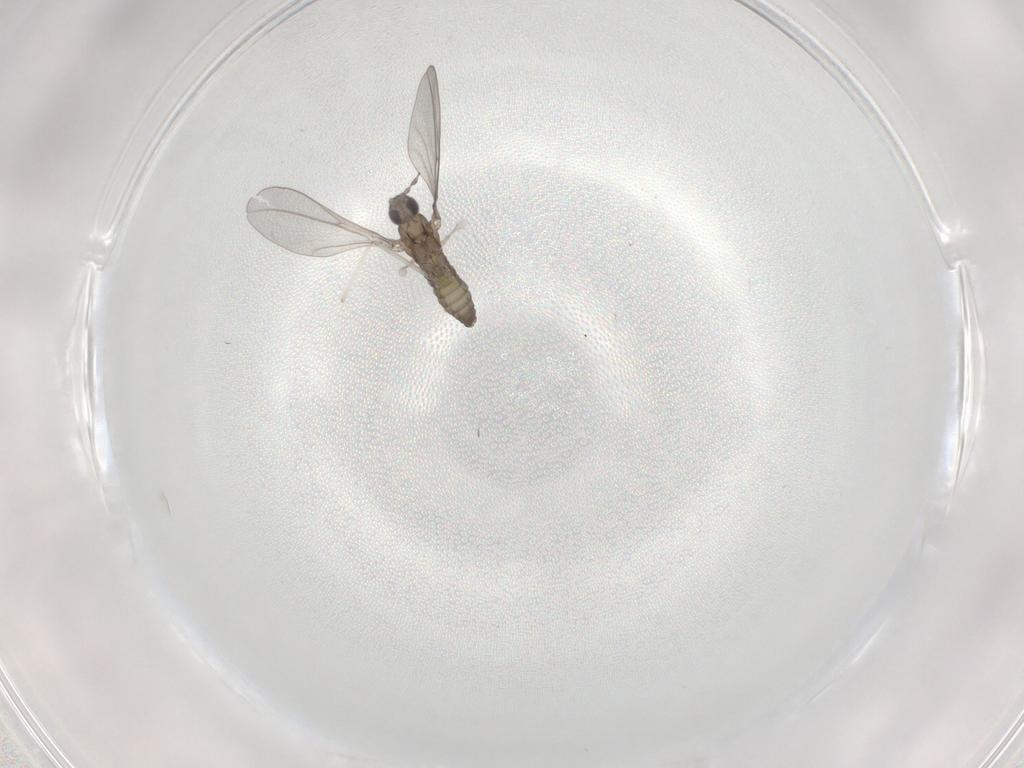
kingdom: Animalia
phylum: Arthropoda
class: Insecta
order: Diptera
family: Cecidomyiidae
